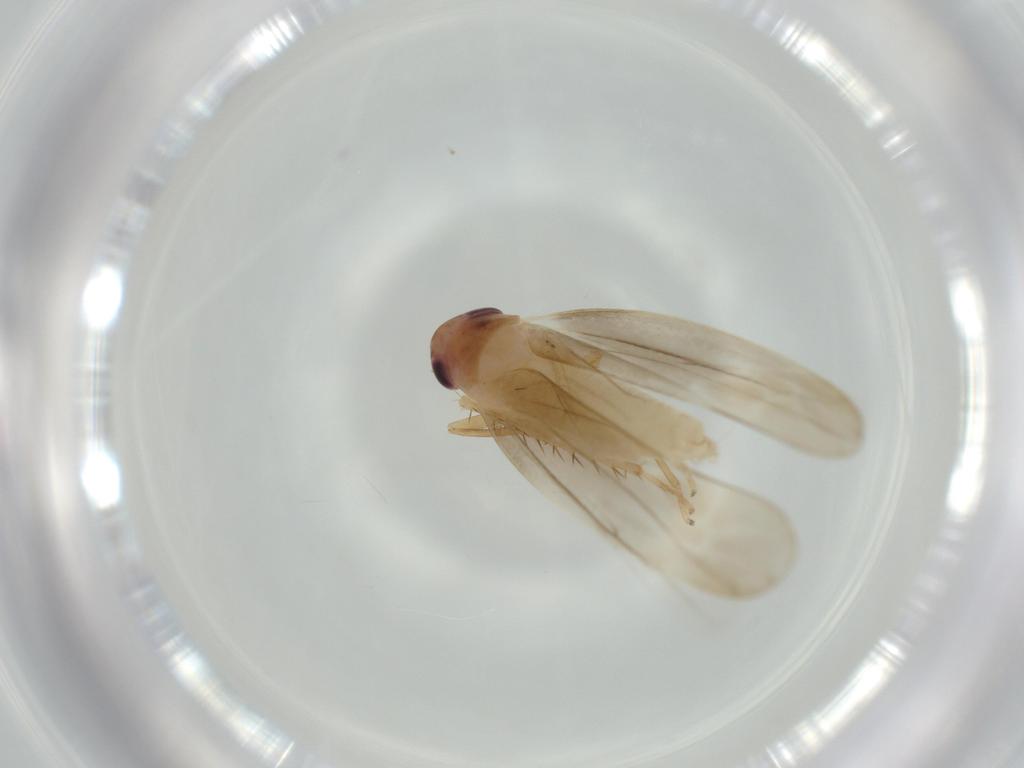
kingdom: Animalia
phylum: Arthropoda
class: Insecta
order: Hemiptera
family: Cicadellidae
